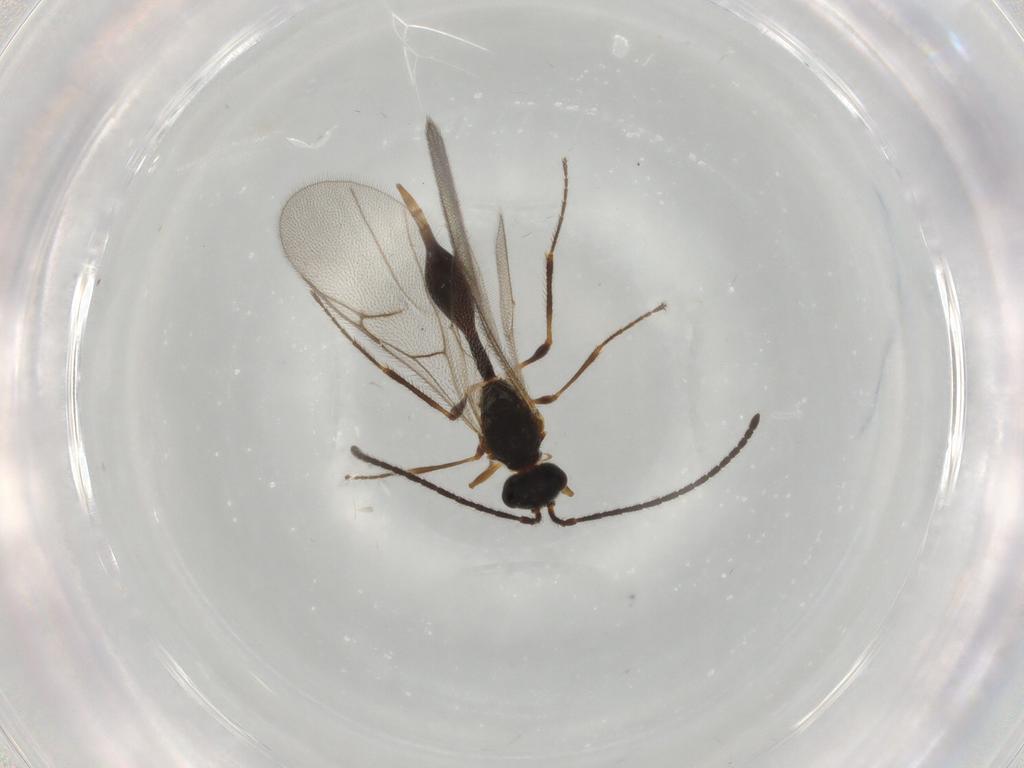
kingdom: Animalia
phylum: Arthropoda
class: Insecta
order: Hymenoptera
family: Diapriidae
